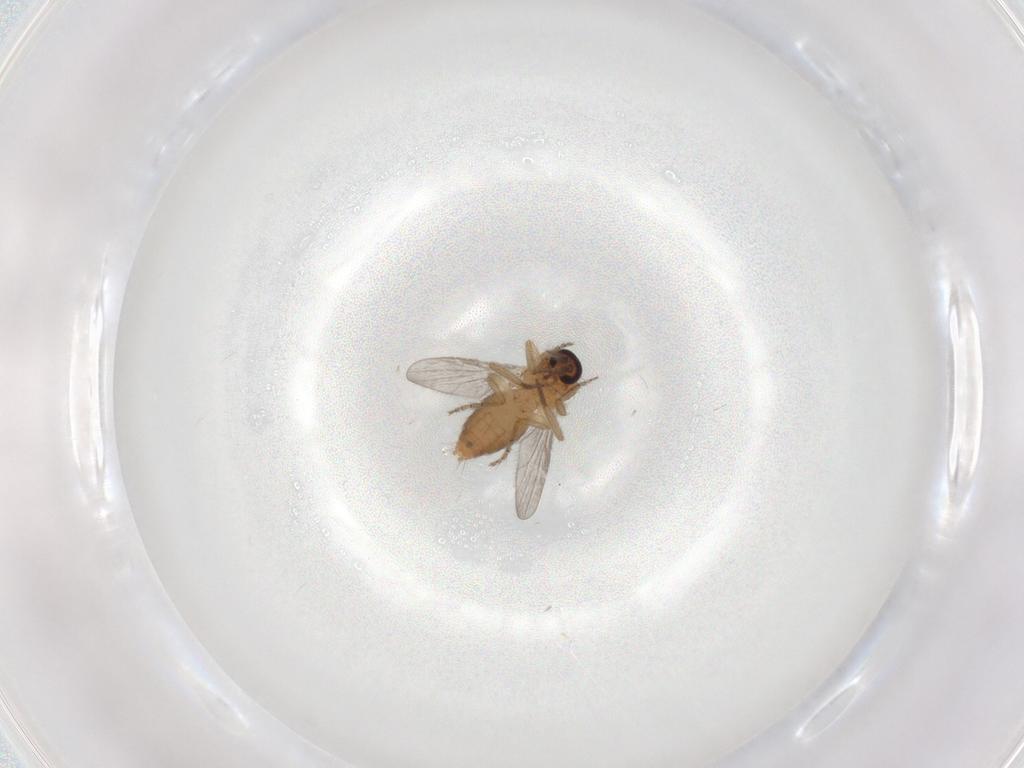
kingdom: Animalia
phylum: Arthropoda
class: Insecta
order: Diptera
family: Ceratopogonidae
